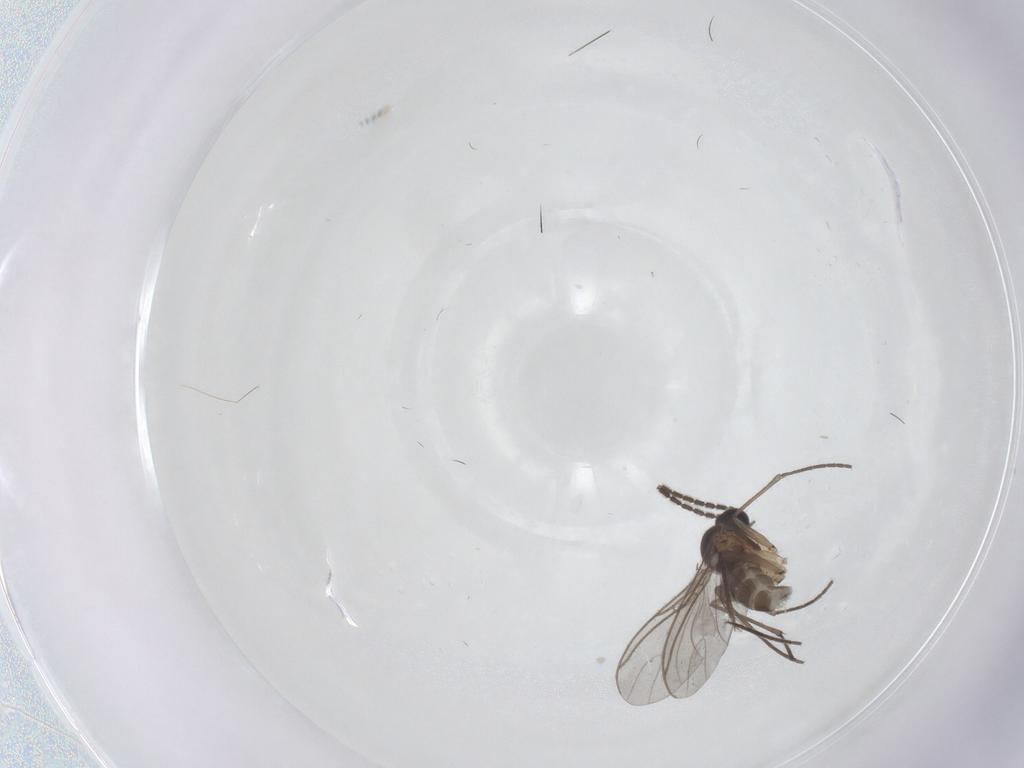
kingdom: Animalia
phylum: Arthropoda
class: Insecta
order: Diptera
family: Sciaridae
